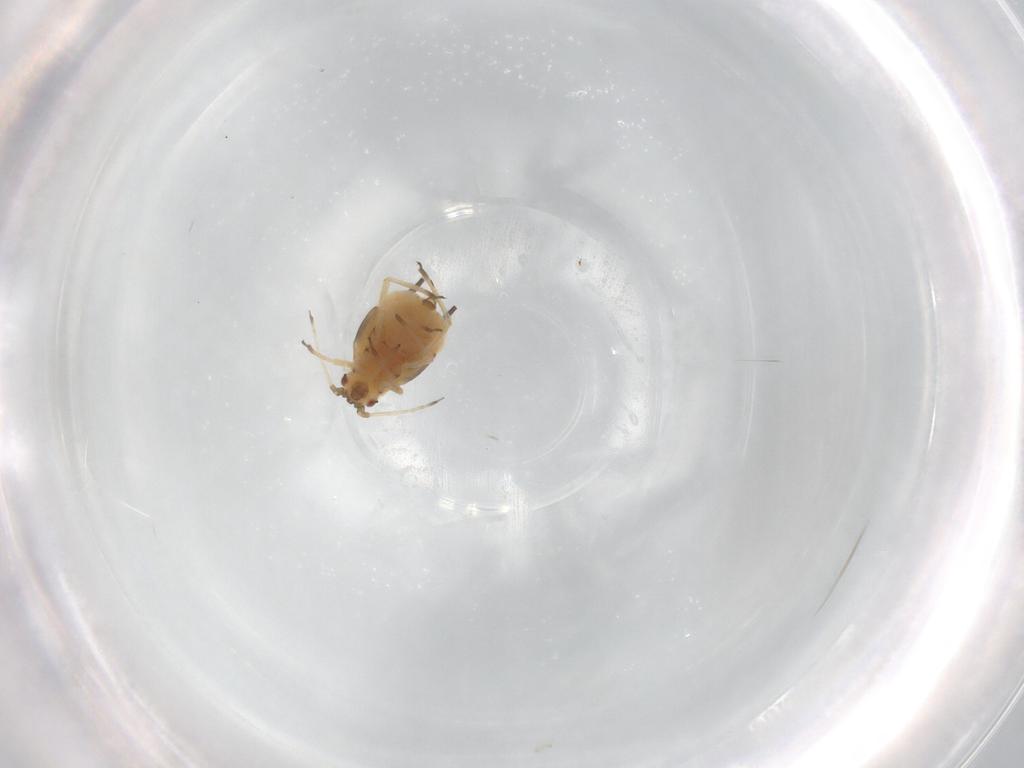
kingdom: Animalia
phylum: Arthropoda
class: Insecta
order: Hemiptera
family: Aphididae
